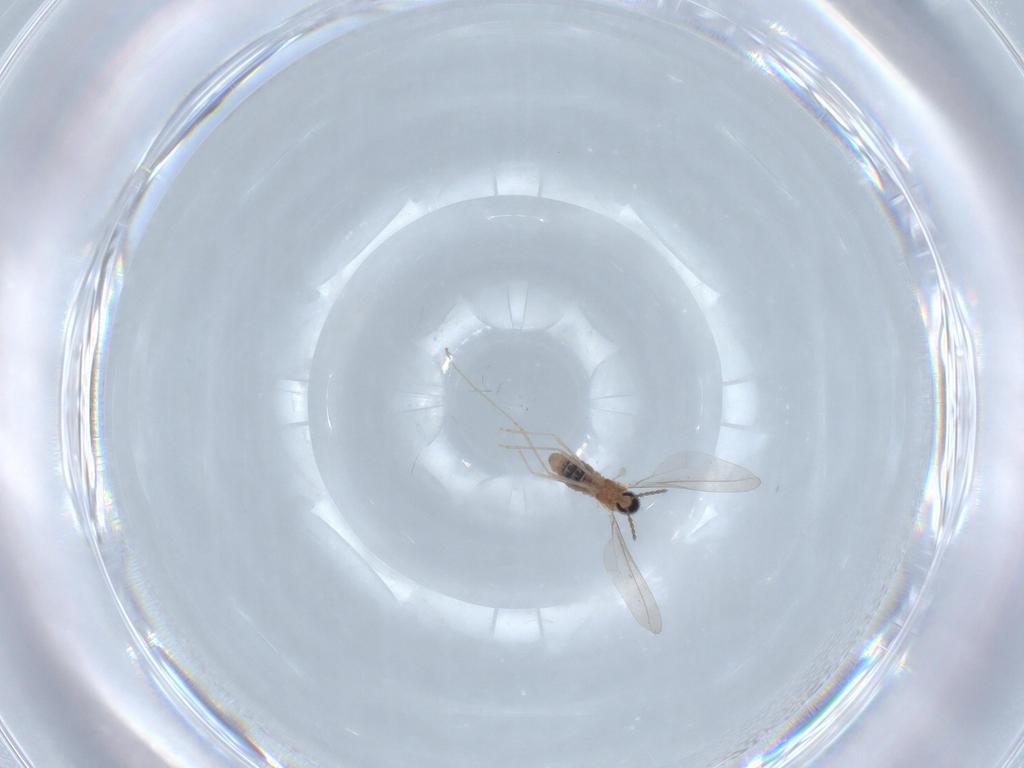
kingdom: Animalia
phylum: Arthropoda
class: Insecta
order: Diptera
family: Cecidomyiidae
